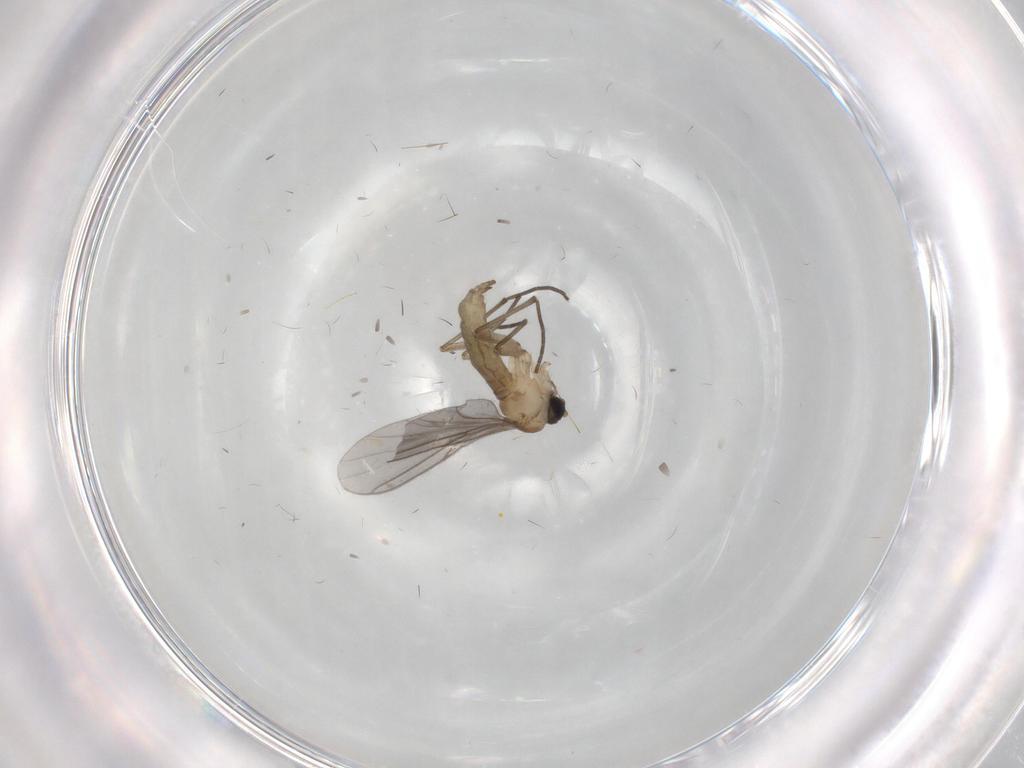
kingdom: Animalia
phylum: Arthropoda
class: Insecta
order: Diptera
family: Sciaridae
